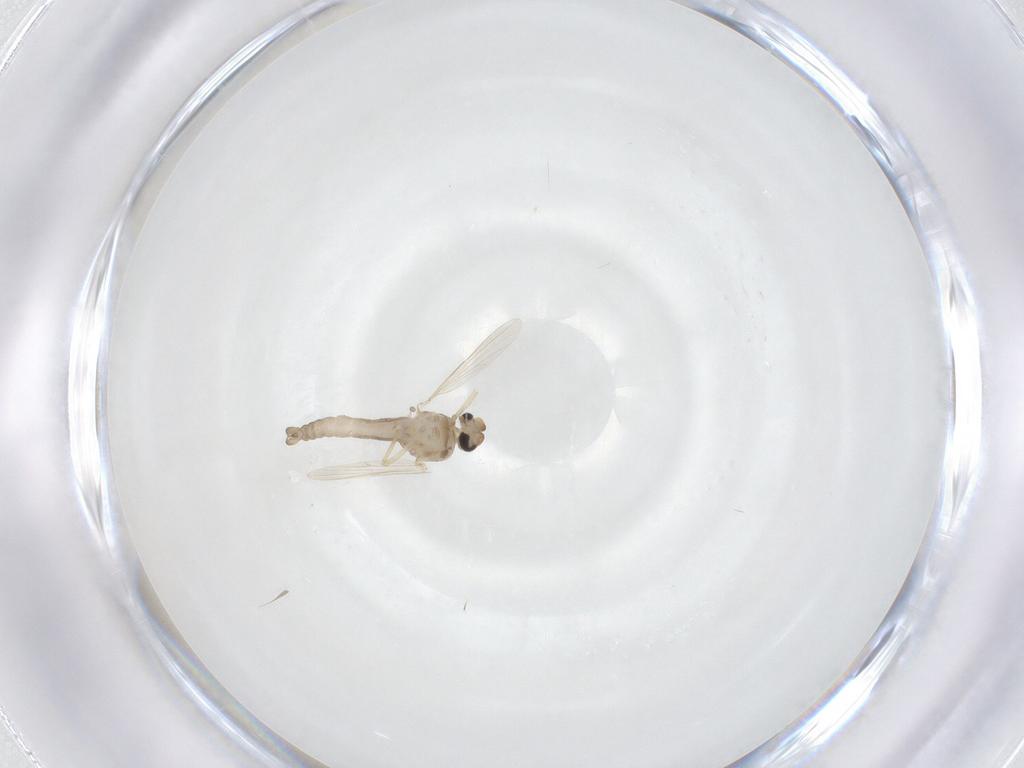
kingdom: Animalia
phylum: Arthropoda
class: Insecta
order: Diptera
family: Ceratopogonidae
